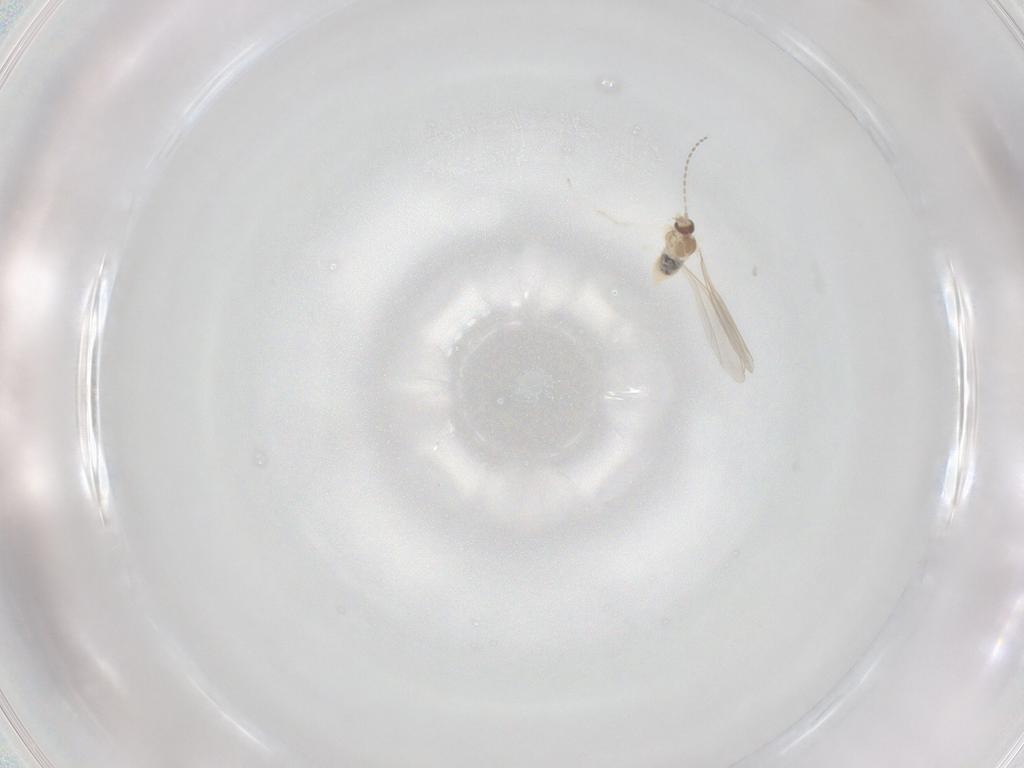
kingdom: Animalia
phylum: Arthropoda
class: Insecta
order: Diptera
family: Cecidomyiidae
